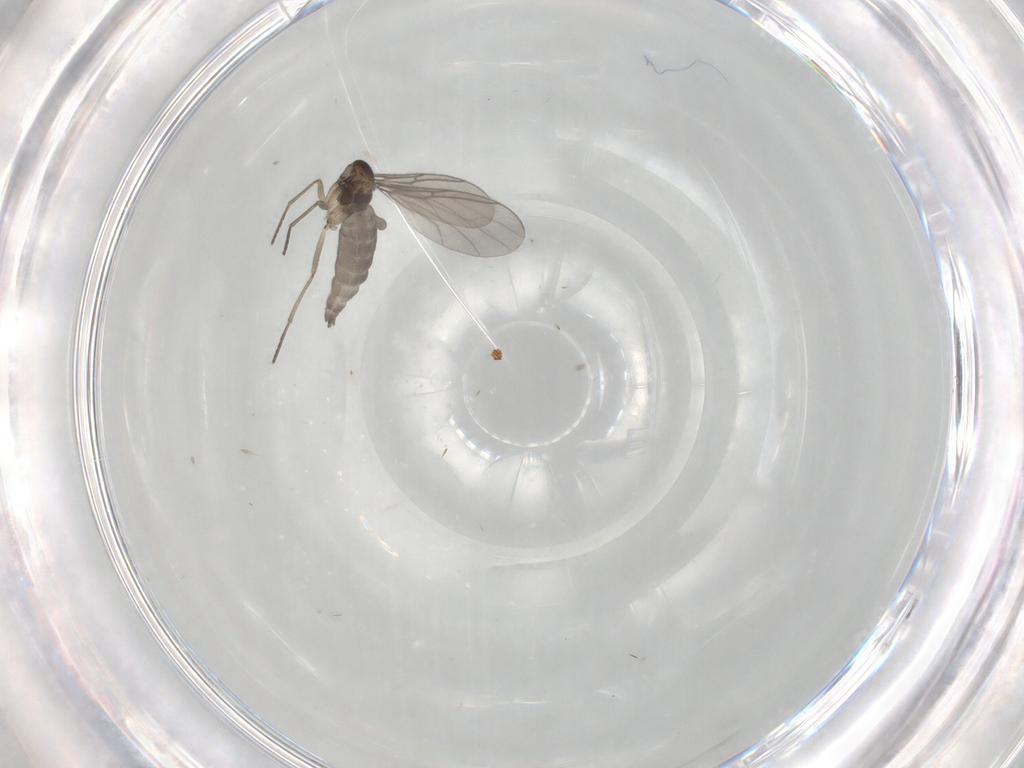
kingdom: Animalia
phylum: Arthropoda
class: Insecta
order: Diptera
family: Sciaridae
